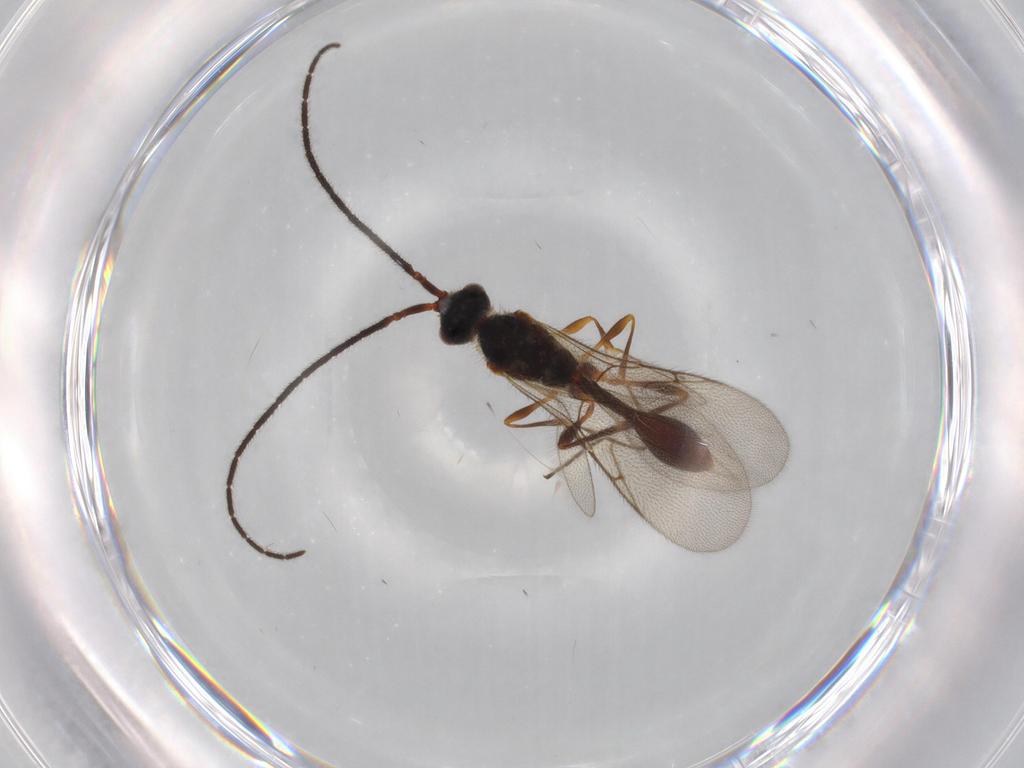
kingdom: Animalia
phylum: Arthropoda
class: Insecta
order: Hymenoptera
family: Diapriidae
